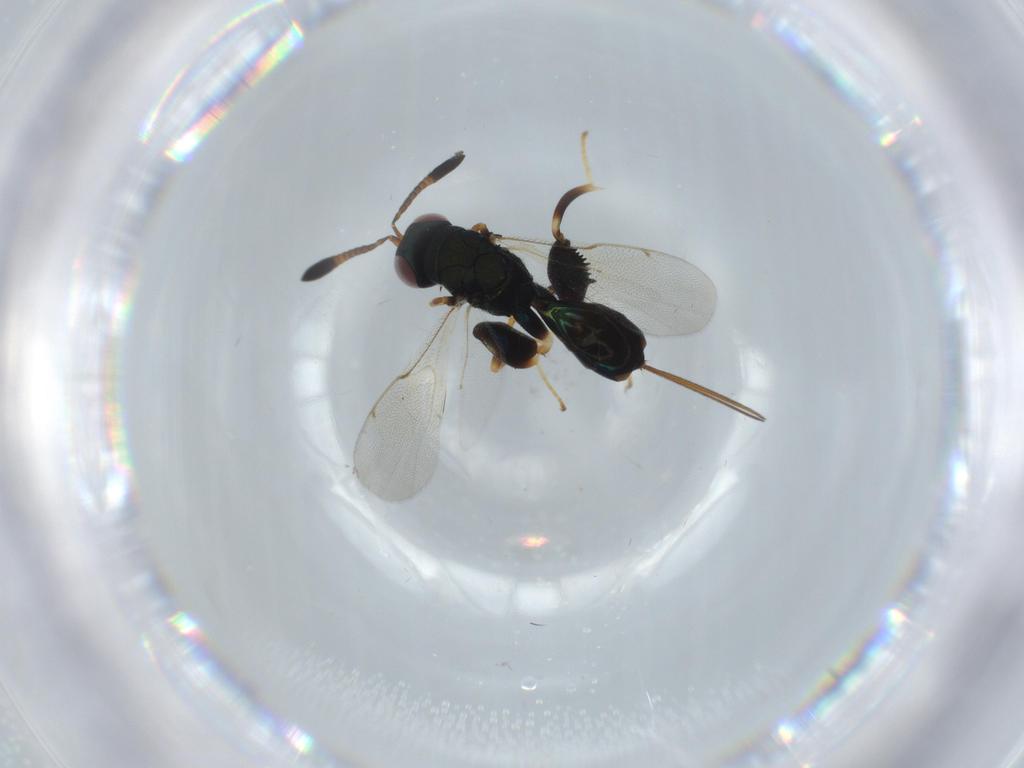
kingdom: Animalia
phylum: Arthropoda
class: Insecta
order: Hymenoptera
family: Torymidae
